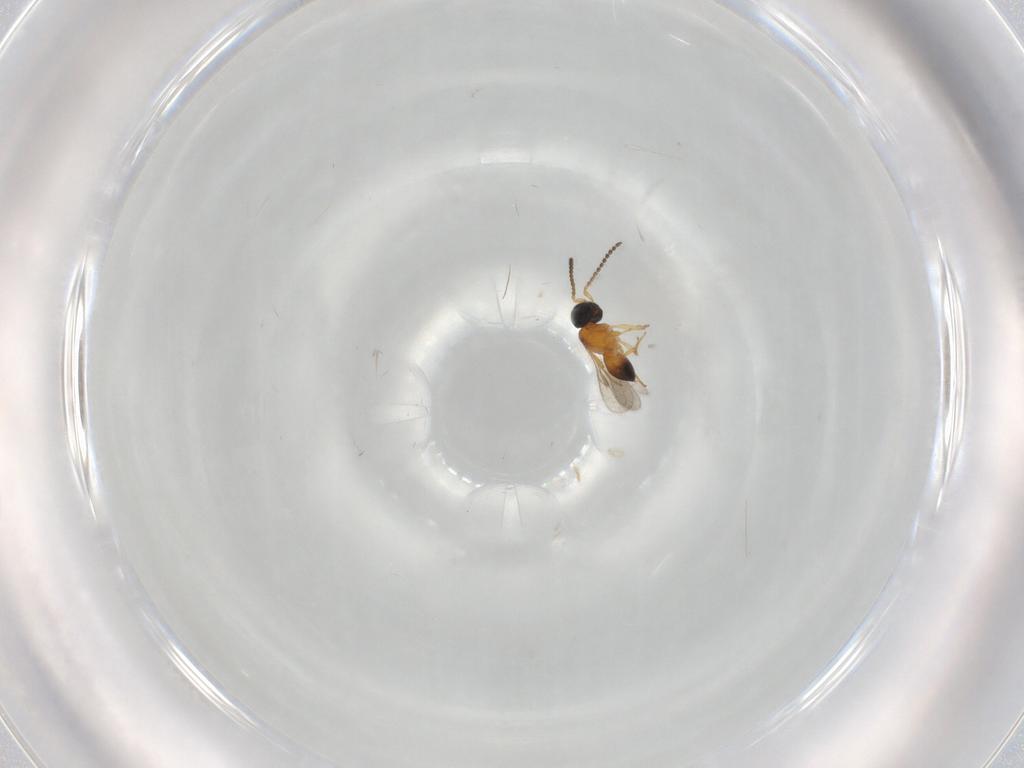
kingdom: Animalia
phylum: Arthropoda
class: Insecta
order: Hymenoptera
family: Scelionidae
